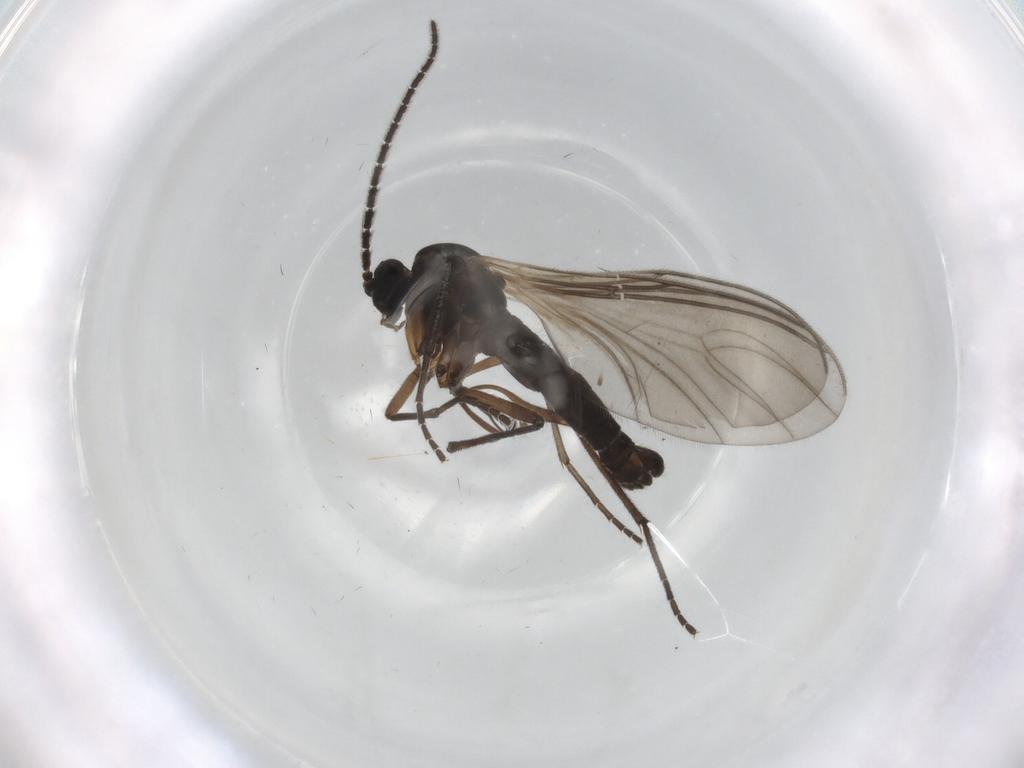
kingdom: Animalia
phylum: Arthropoda
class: Insecta
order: Diptera
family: Sciaridae
